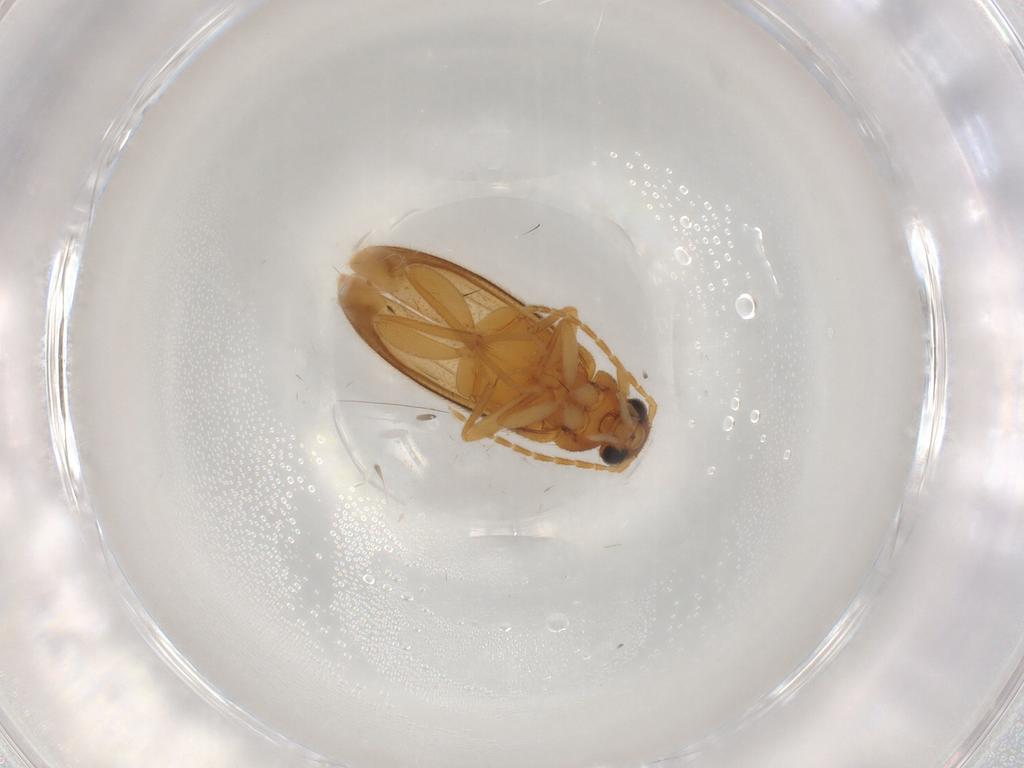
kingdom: Animalia
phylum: Arthropoda
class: Insecta
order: Coleoptera
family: Scraptiidae
